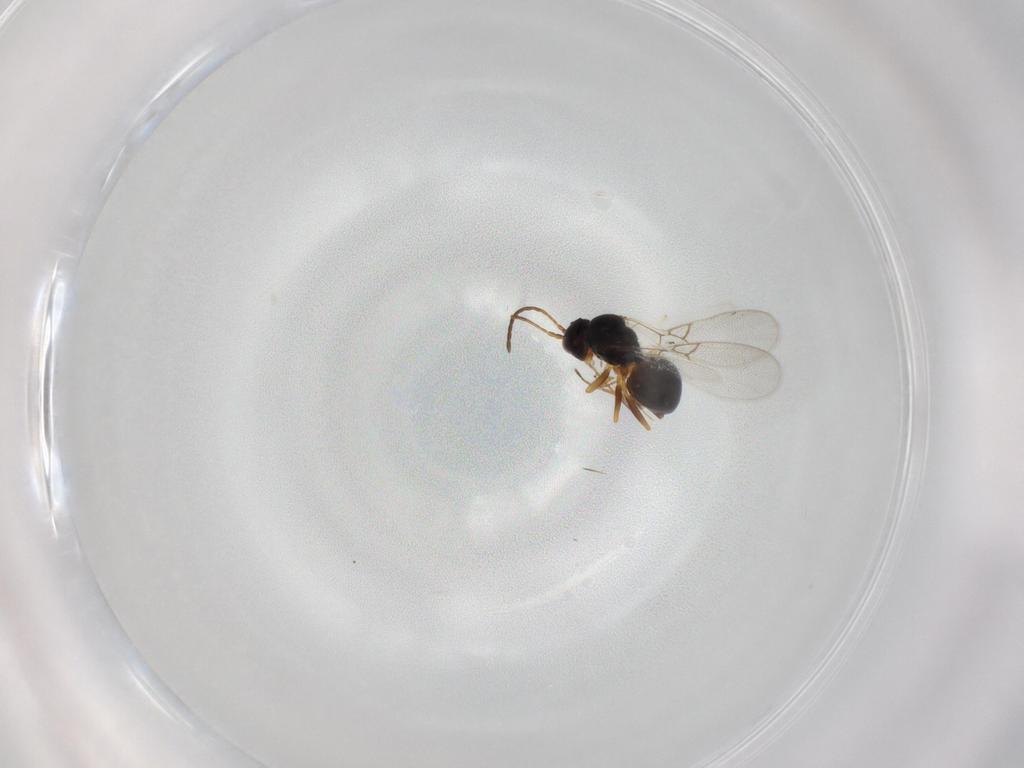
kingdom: Animalia
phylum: Arthropoda
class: Insecta
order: Hymenoptera
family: Figitidae
